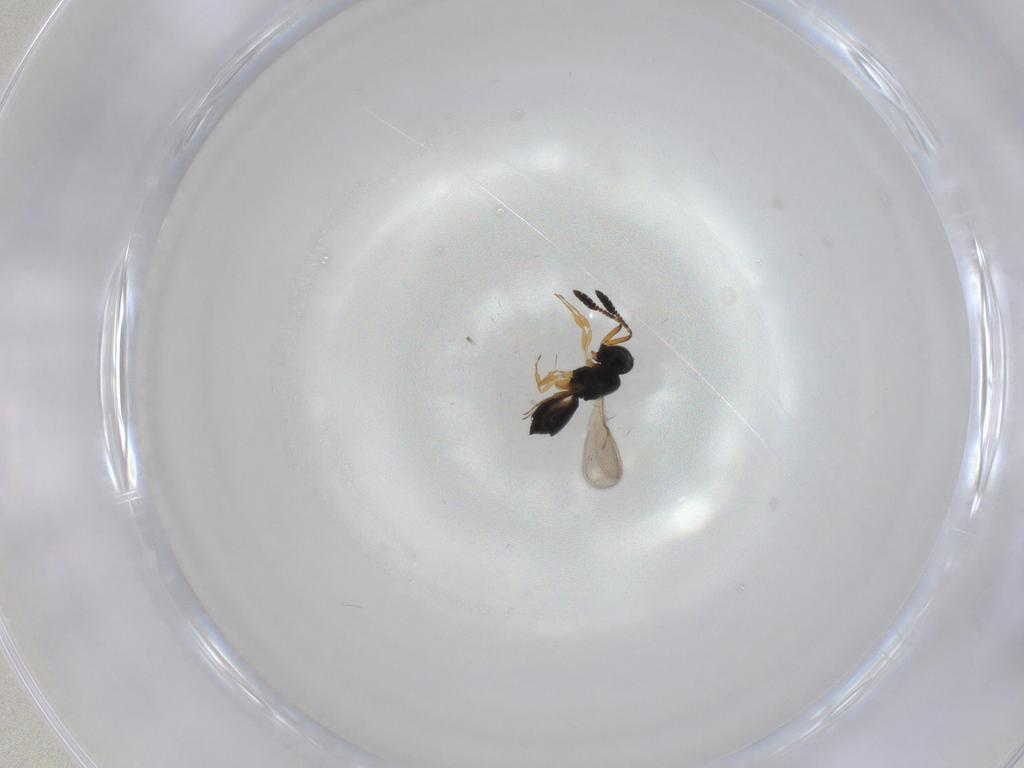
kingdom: Animalia
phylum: Arthropoda
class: Insecta
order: Hymenoptera
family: Scelionidae
